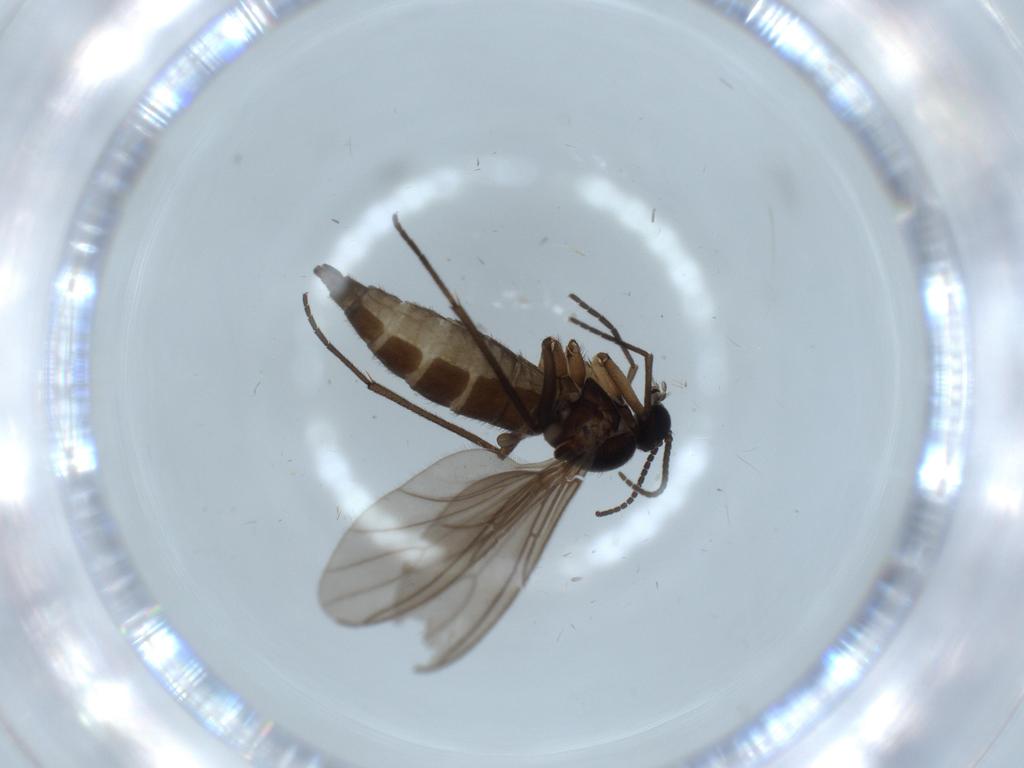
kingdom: Animalia
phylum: Arthropoda
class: Insecta
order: Diptera
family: Sciaridae
